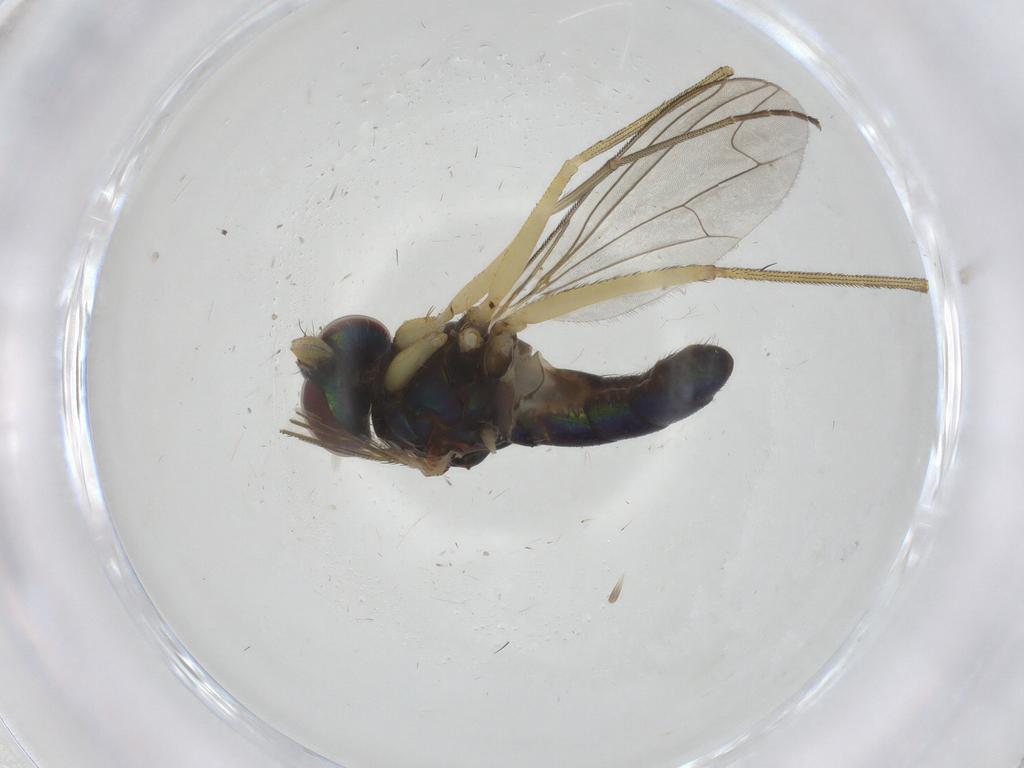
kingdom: Animalia
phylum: Arthropoda
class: Insecta
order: Diptera
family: Dolichopodidae
